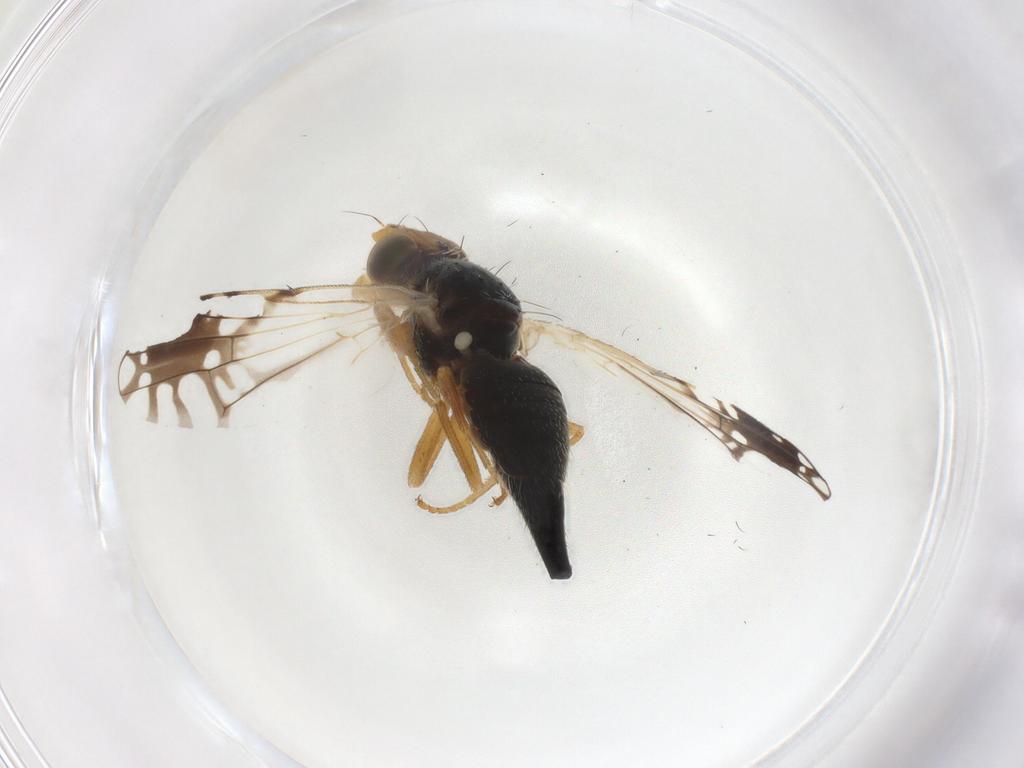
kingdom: Animalia
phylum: Arthropoda
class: Insecta
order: Diptera
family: Tephritidae
